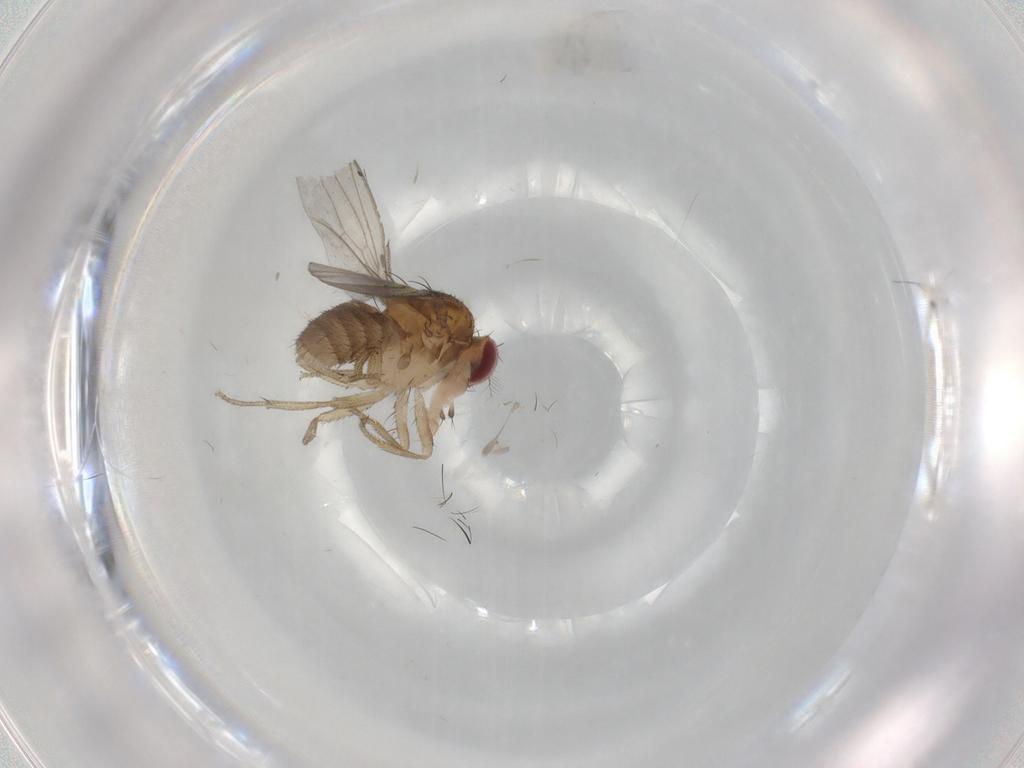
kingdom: Animalia
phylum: Arthropoda
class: Insecta
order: Diptera
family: Drosophilidae
